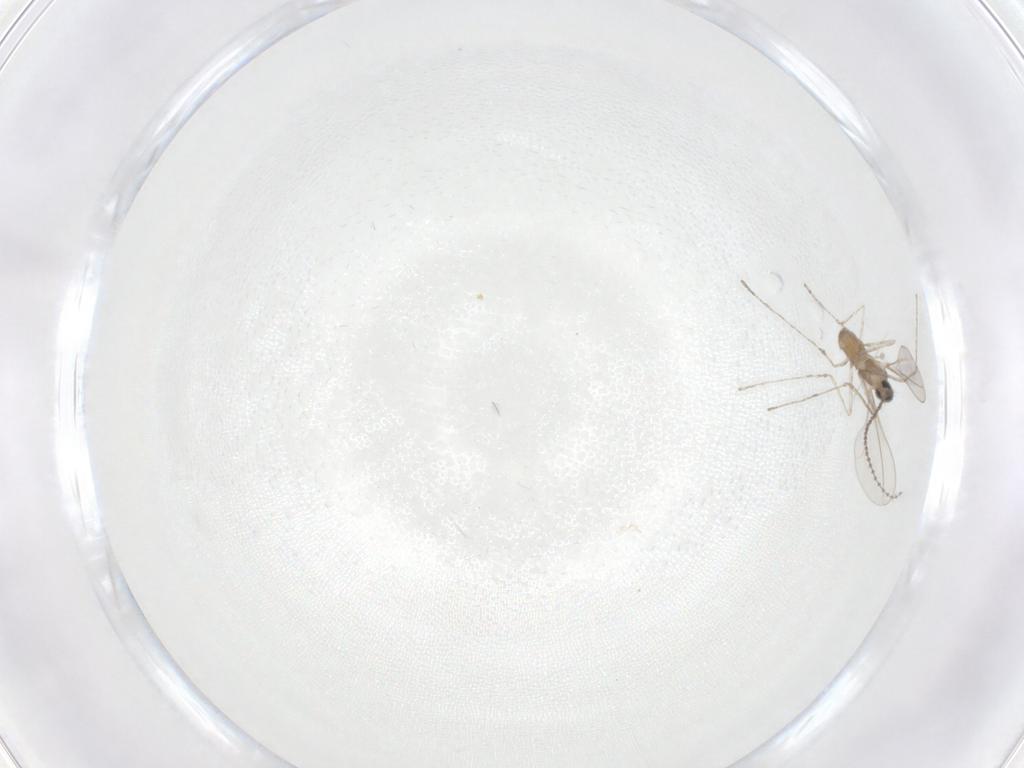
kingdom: Animalia
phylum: Arthropoda
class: Insecta
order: Diptera
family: Cecidomyiidae
